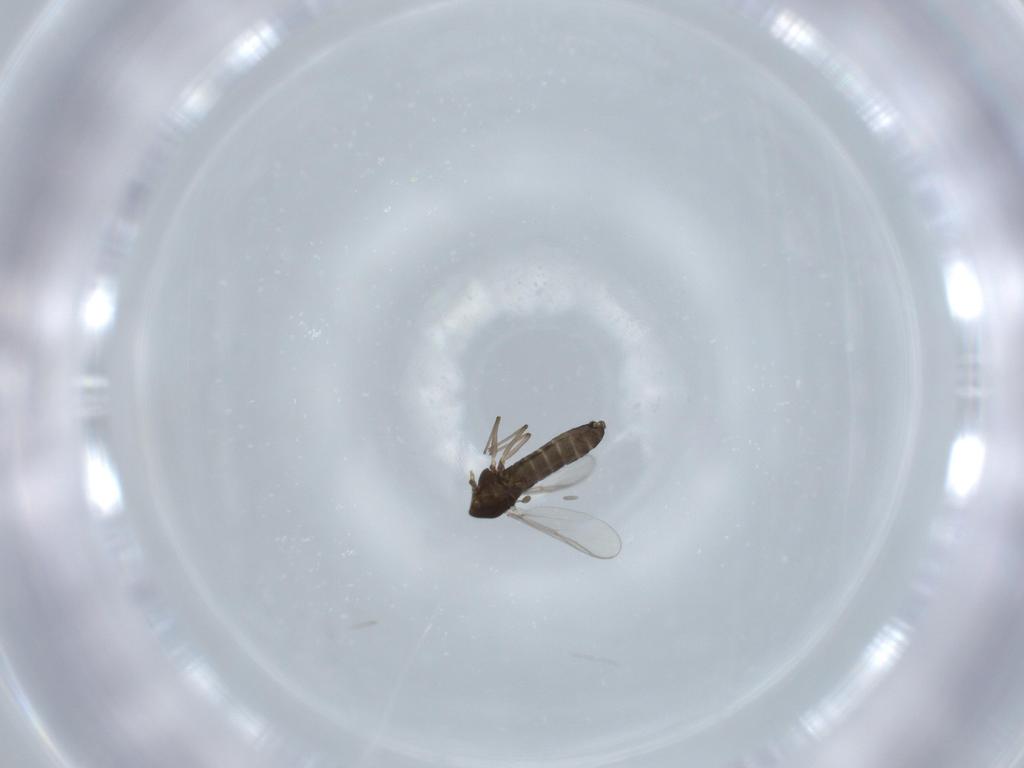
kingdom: Animalia
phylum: Arthropoda
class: Insecta
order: Diptera
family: Chironomidae
